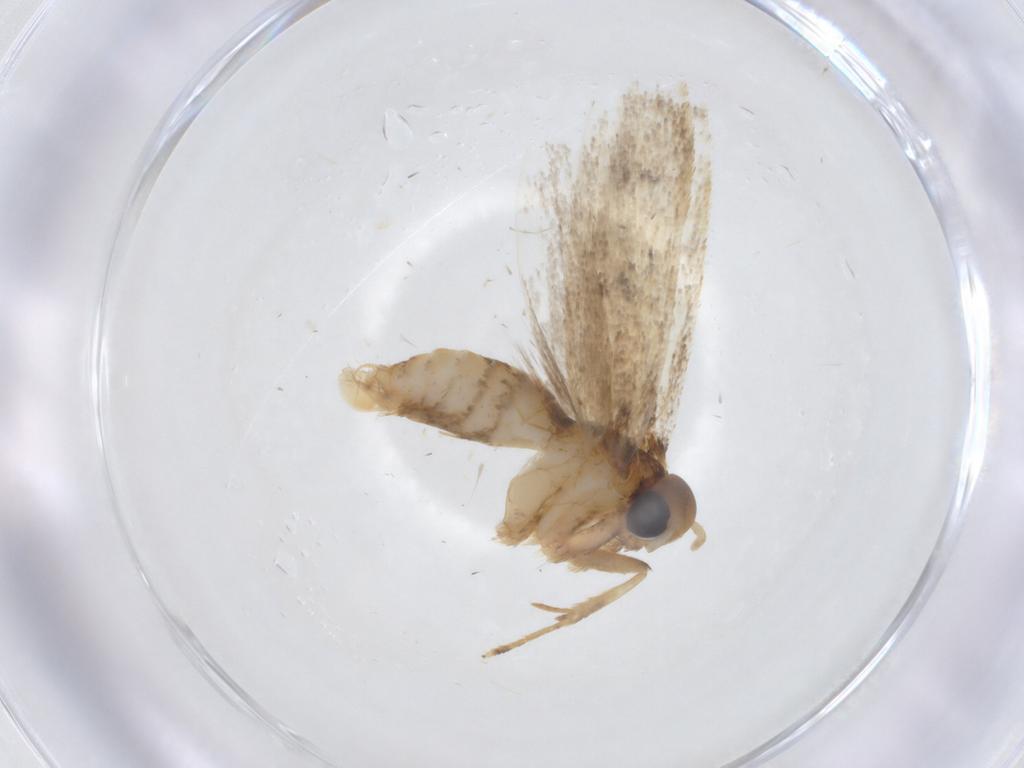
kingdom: Animalia
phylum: Arthropoda
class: Insecta
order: Lepidoptera
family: Oecophoridae
